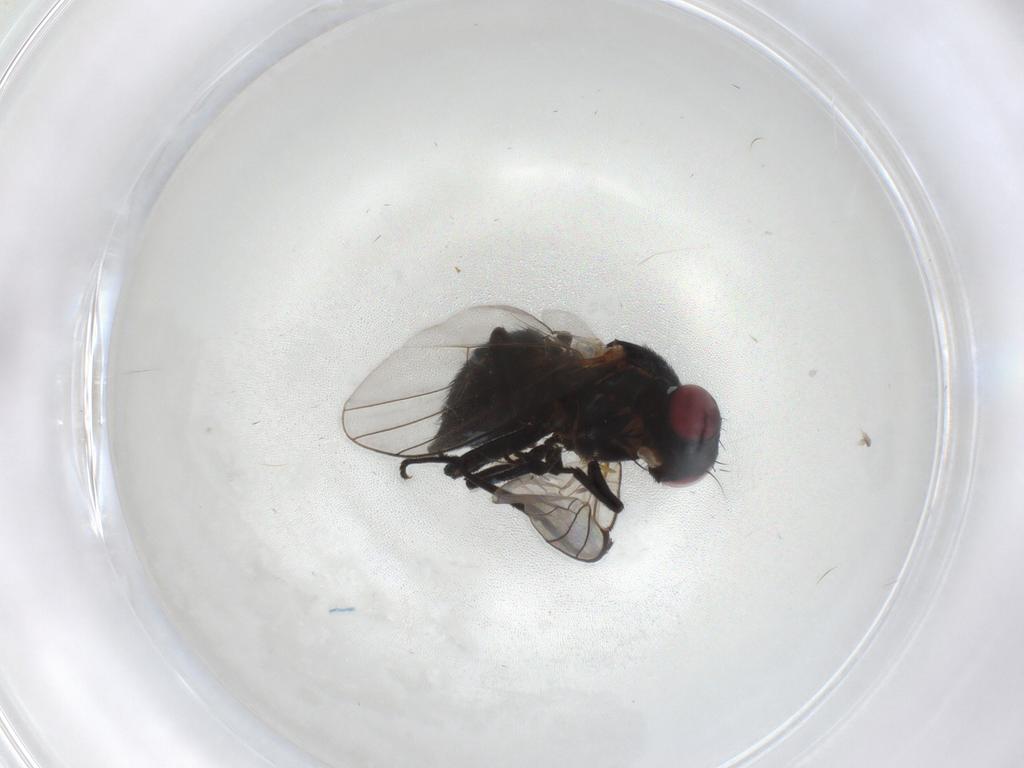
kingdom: Animalia
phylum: Arthropoda
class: Insecta
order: Diptera
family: Agromyzidae
